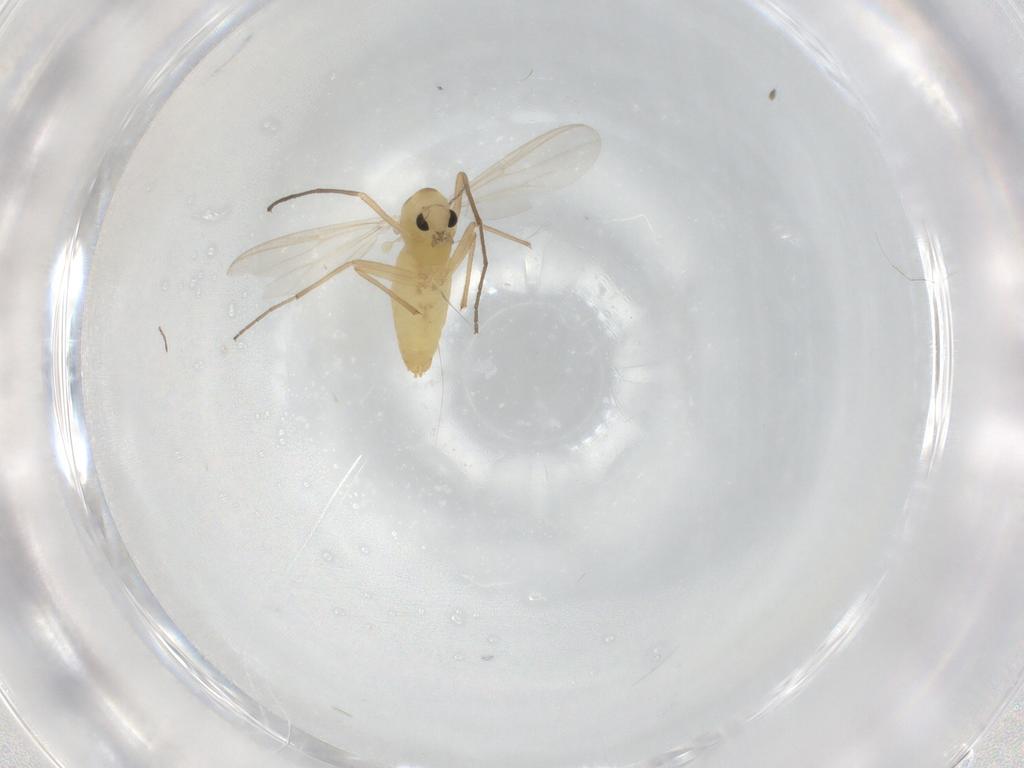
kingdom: Animalia
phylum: Arthropoda
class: Insecta
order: Diptera
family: Chironomidae
